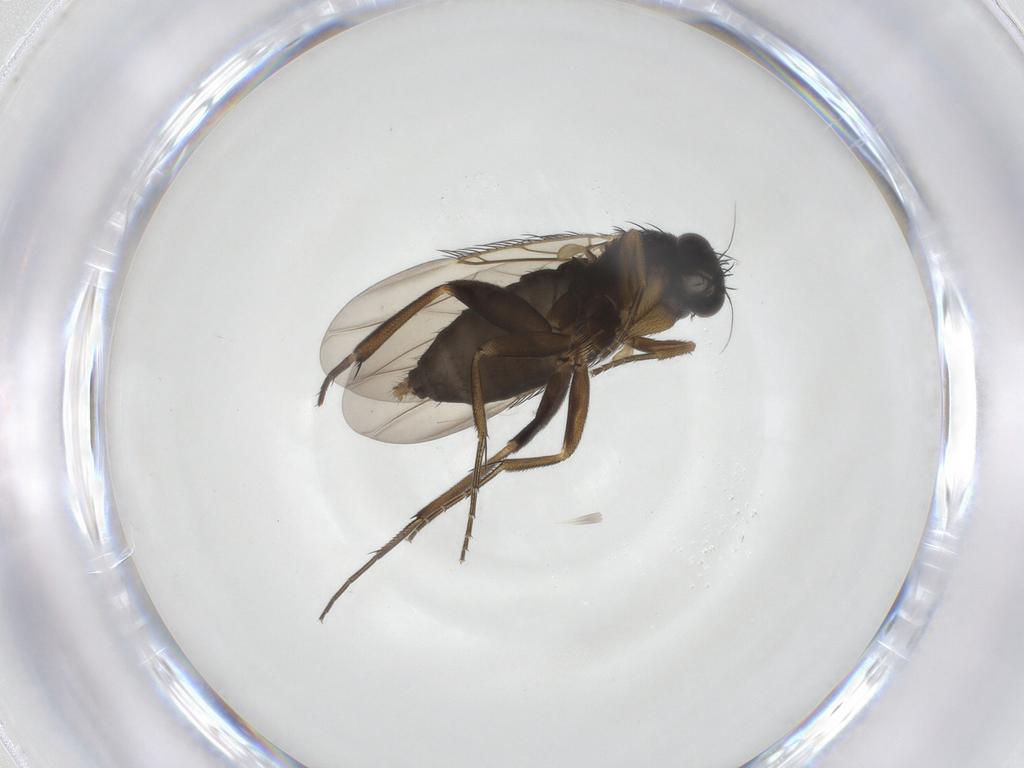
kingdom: Animalia
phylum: Arthropoda
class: Insecta
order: Diptera
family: Phoridae
